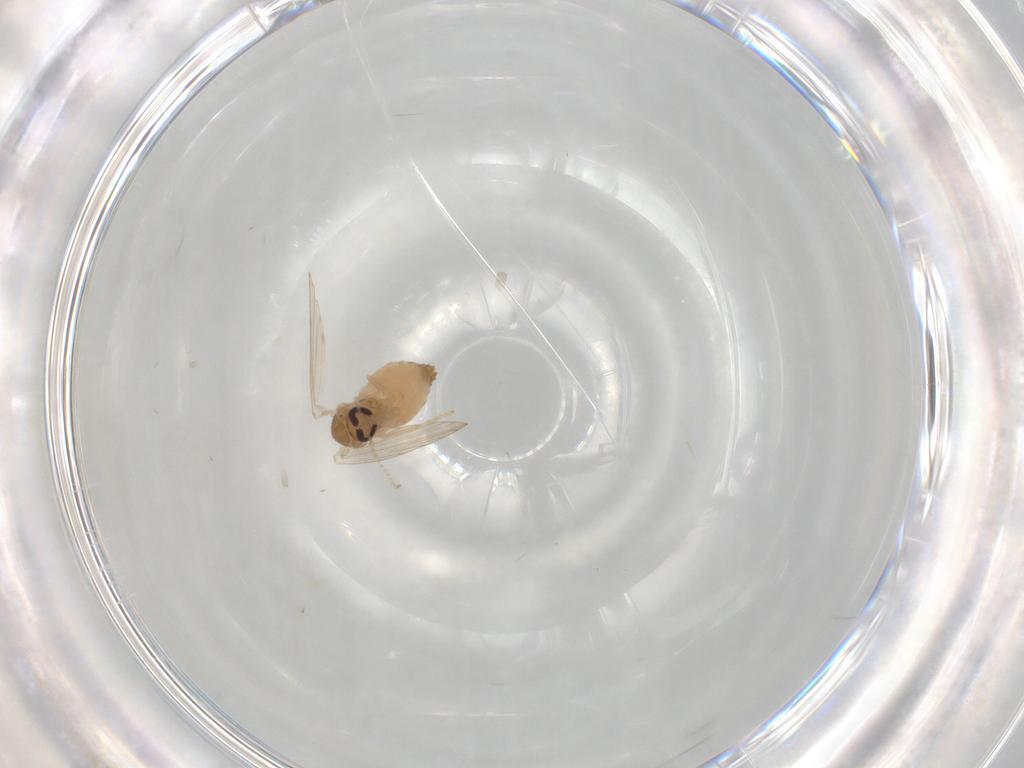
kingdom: Animalia
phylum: Arthropoda
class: Insecta
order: Diptera
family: Psychodidae
